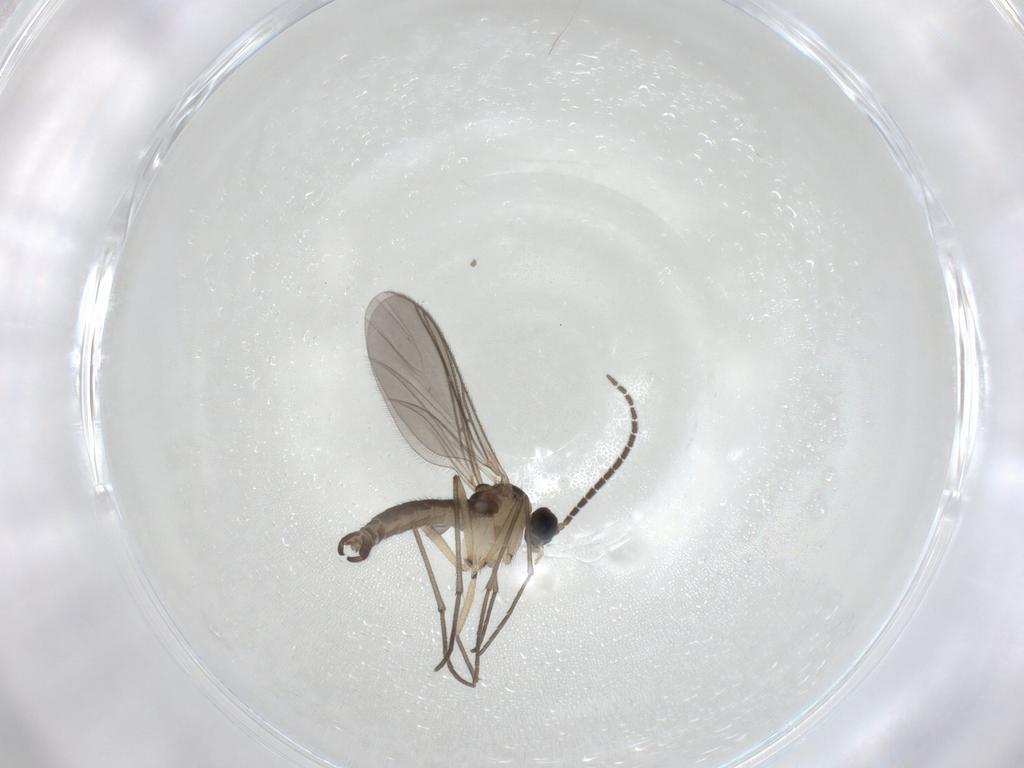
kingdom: Animalia
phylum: Arthropoda
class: Insecta
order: Diptera
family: Sciaridae
